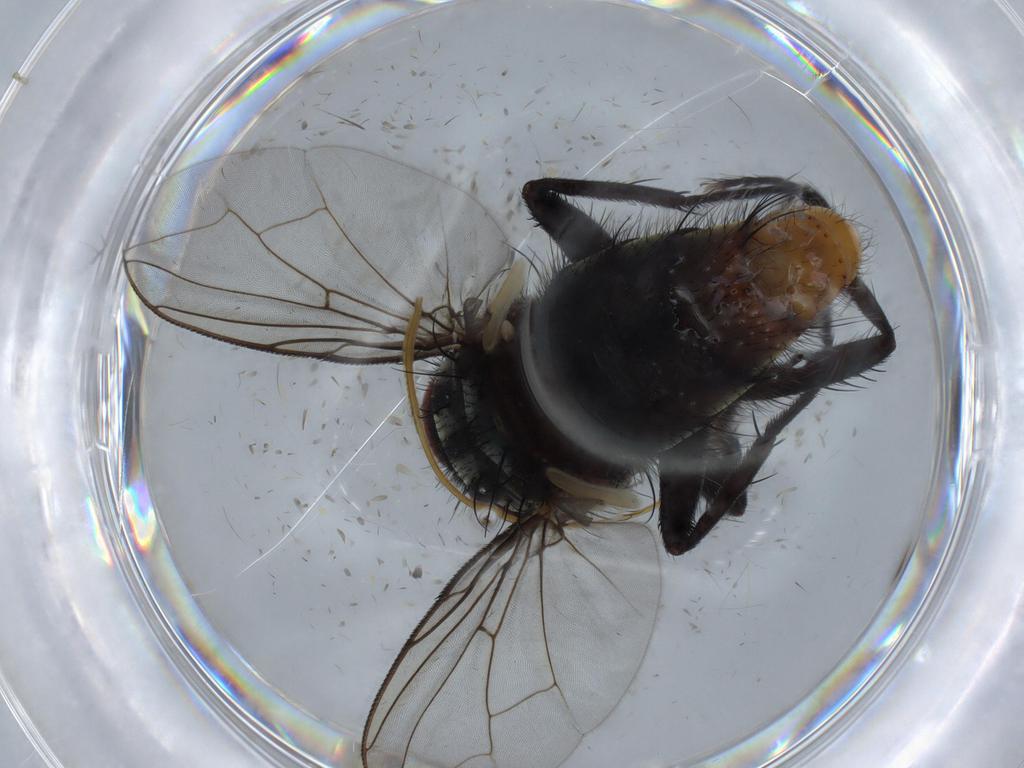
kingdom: Animalia
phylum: Arthropoda
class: Insecta
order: Diptera
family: Sarcophagidae
